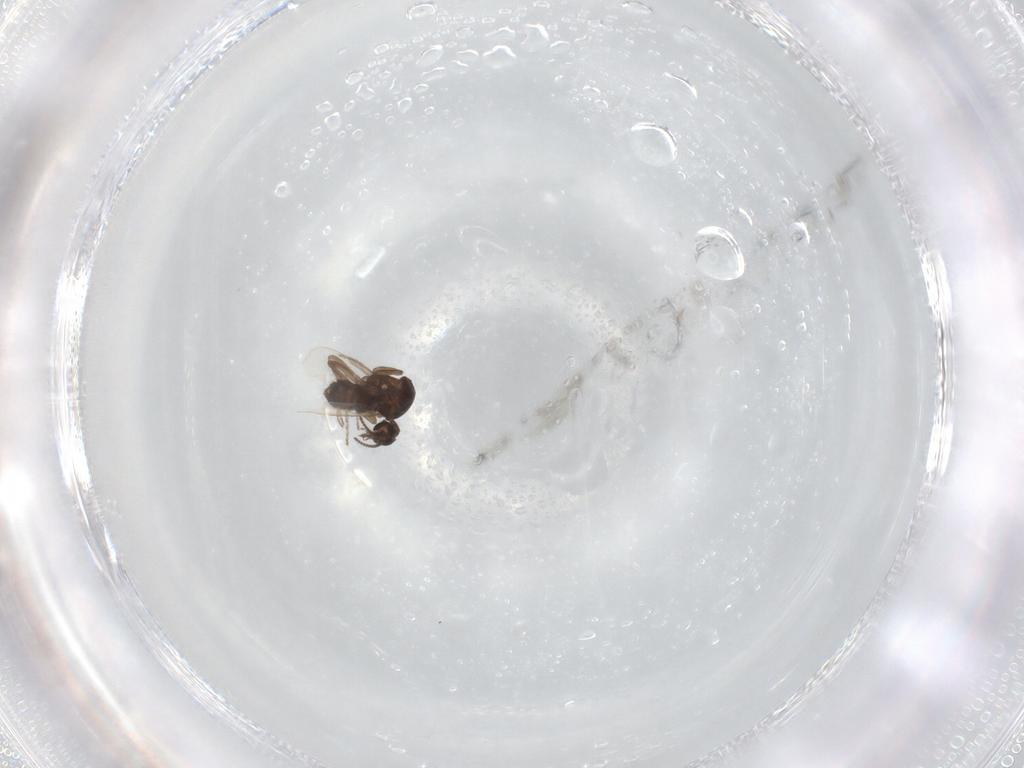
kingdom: Animalia
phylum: Arthropoda
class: Insecta
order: Diptera
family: Ceratopogonidae
